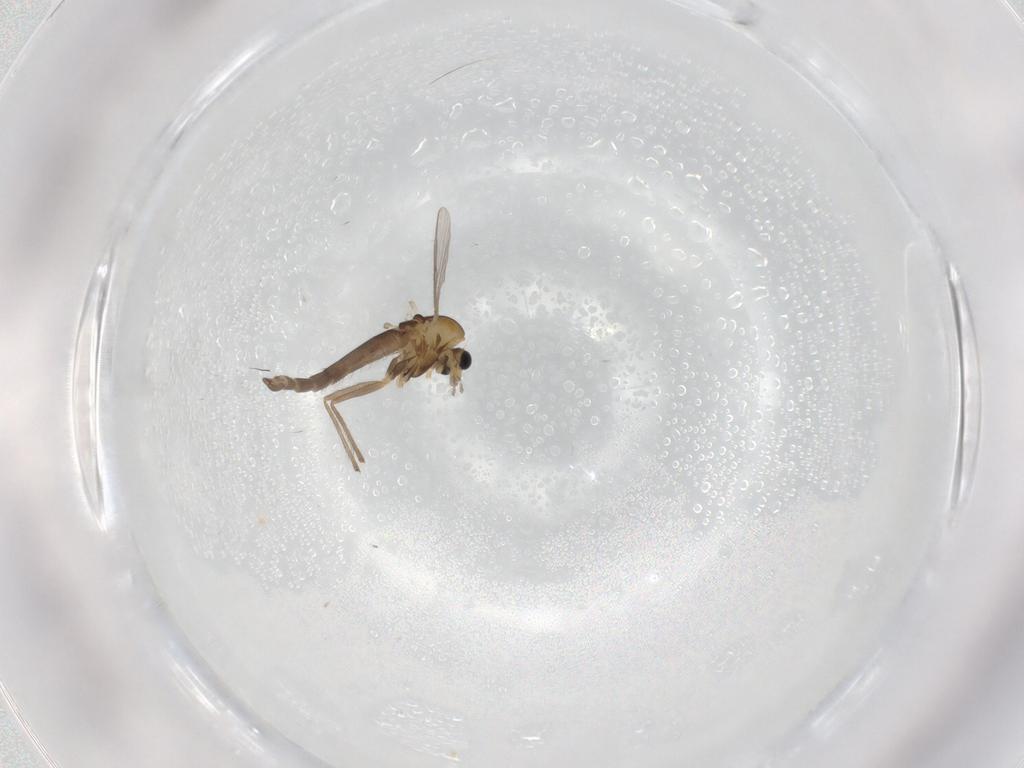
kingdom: Animalia
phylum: Arthropoda
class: Insecta
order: Diptera
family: Chironomidae
